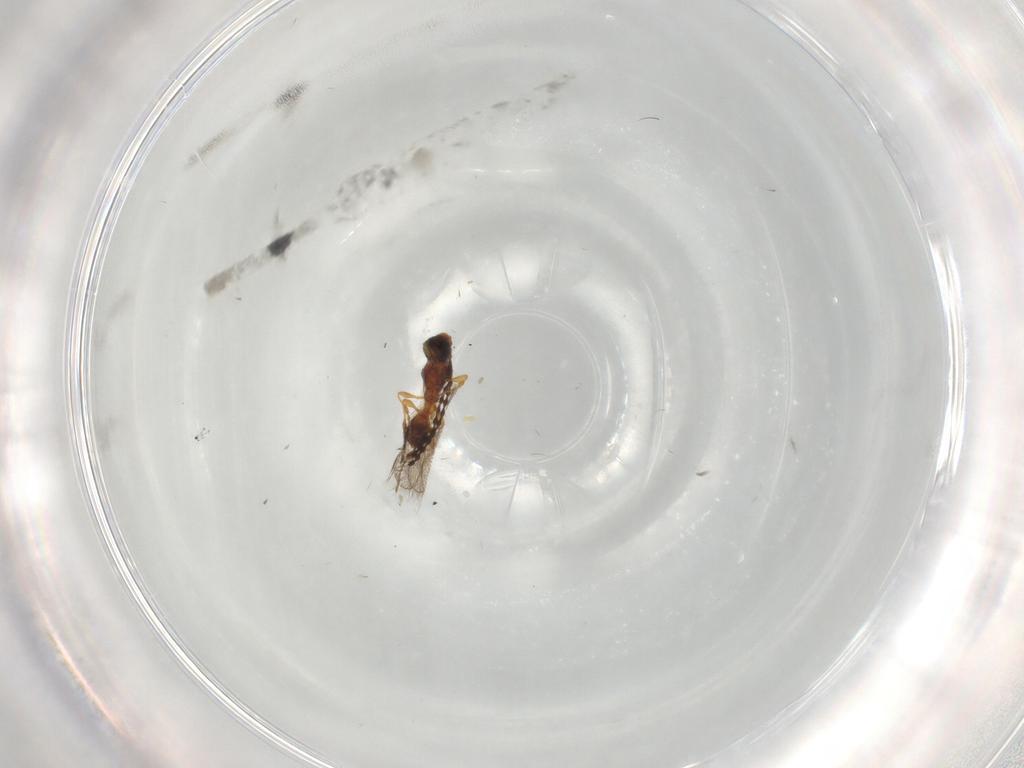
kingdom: Animalia
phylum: Arthropoda
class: Insecta
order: Hymenoptera
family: Diapriidae
